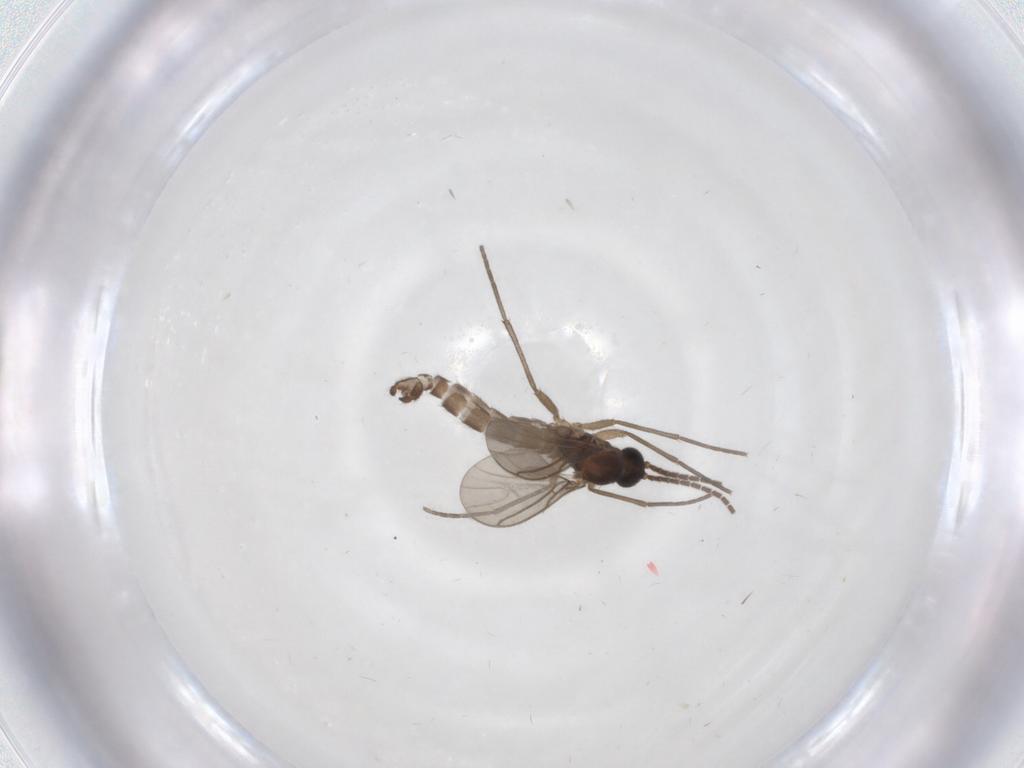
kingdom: Animalia
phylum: Arthropoda
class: Insecta
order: Diptera
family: Sciaridae
